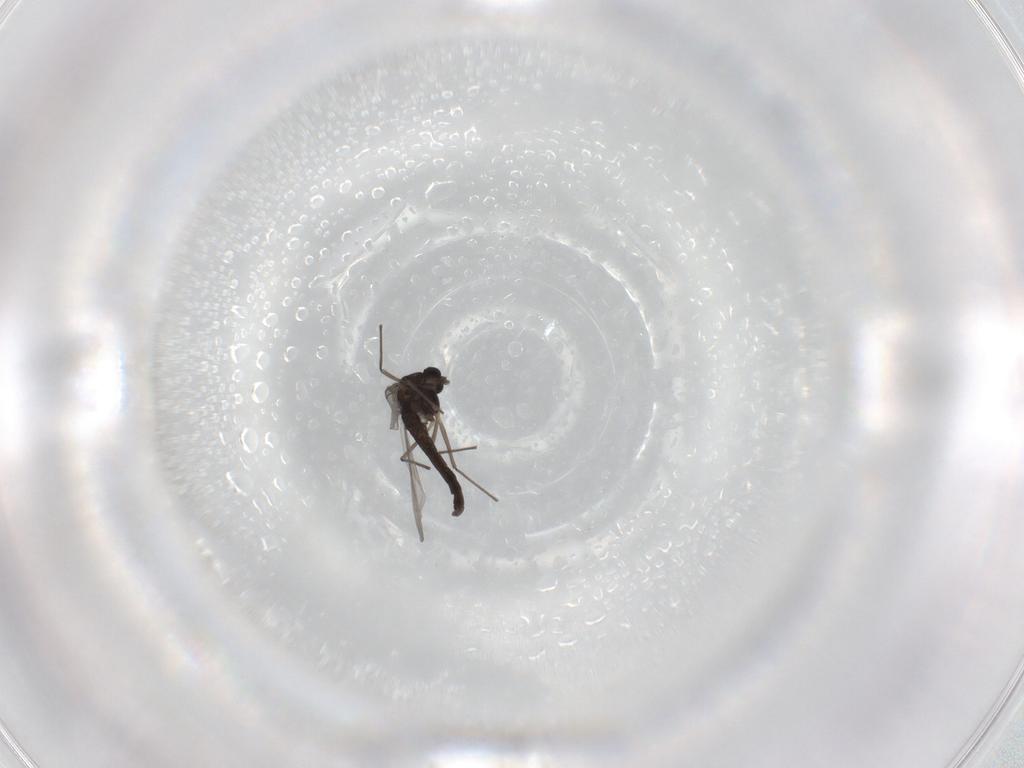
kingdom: Animalia
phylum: Arthropoda
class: Insecta
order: Diptera
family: Chironomidae
